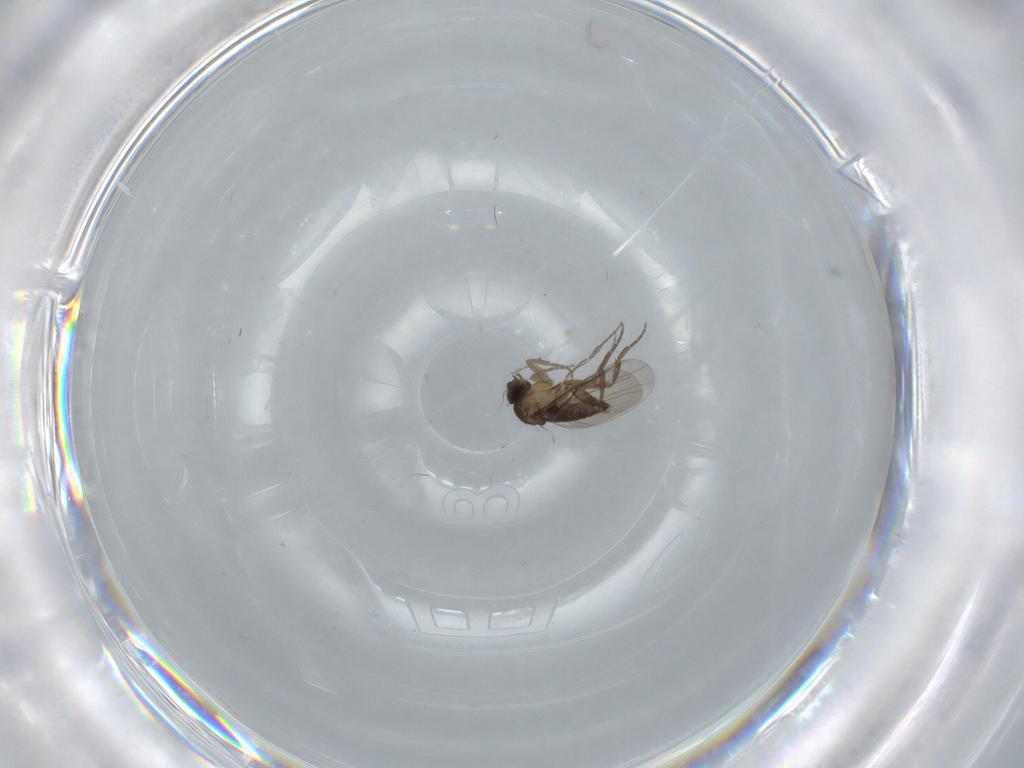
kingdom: Animalia
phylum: Arthropoda
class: Insecta
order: Diptera
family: Phoridae
